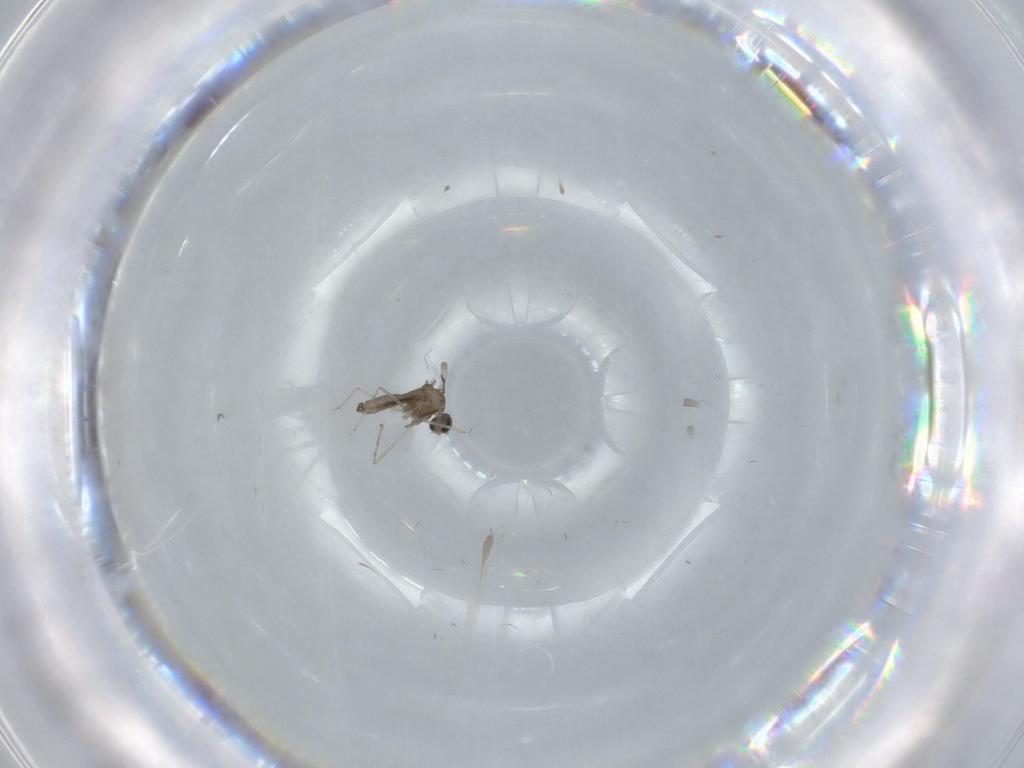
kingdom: Animalia
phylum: Arthropoda
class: Insecta
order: Diptera
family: Cecidomyiidae
